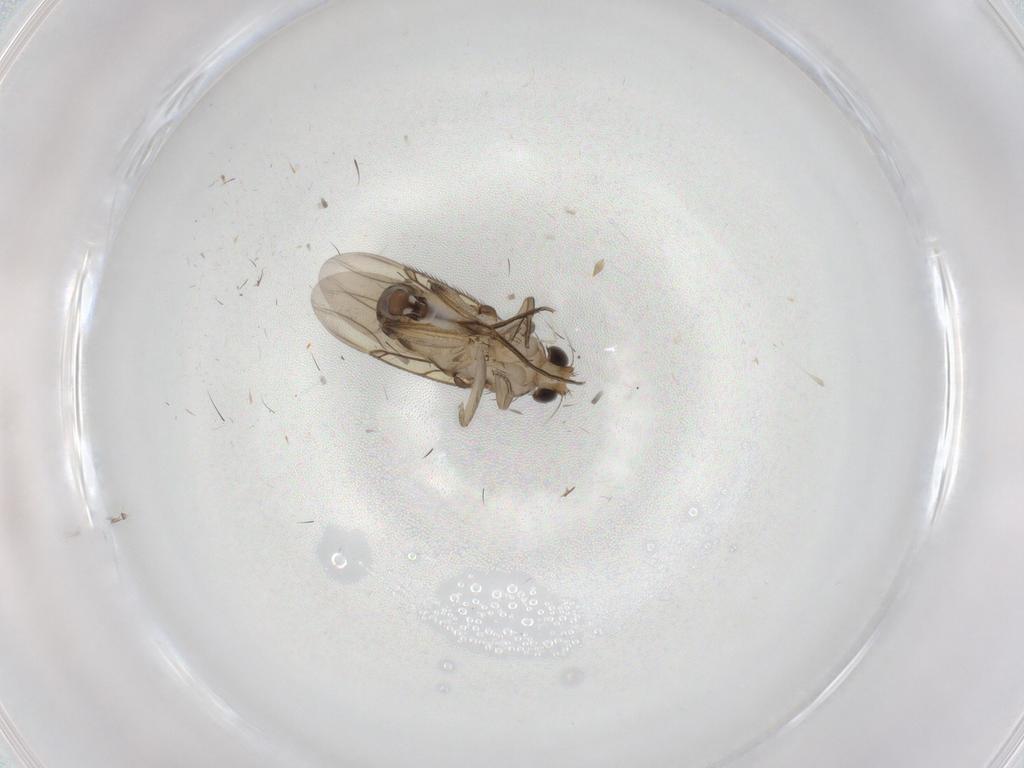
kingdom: Animalia
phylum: Arthropoda
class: Insecta
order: Diptera
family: Phoridae
